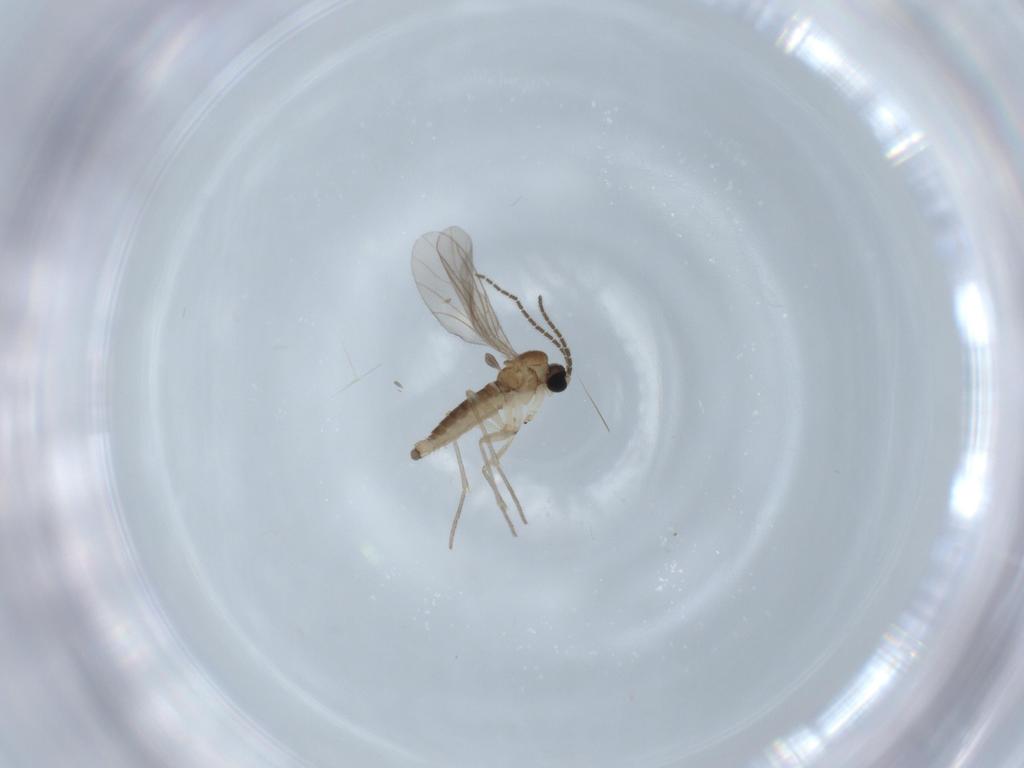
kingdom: Animalia
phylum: Arthropoda
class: Insecta
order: Diptera
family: Sciaridae
